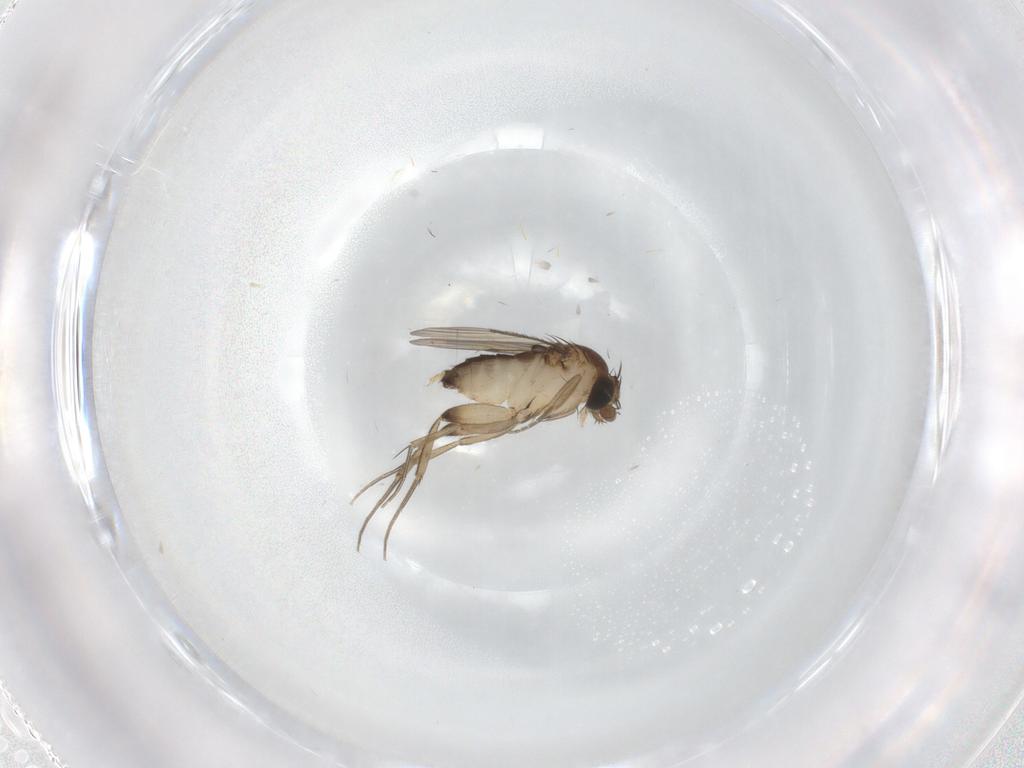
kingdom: Animalia
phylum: Arthropoda
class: Insecta
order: Diptera
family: Phoridae
